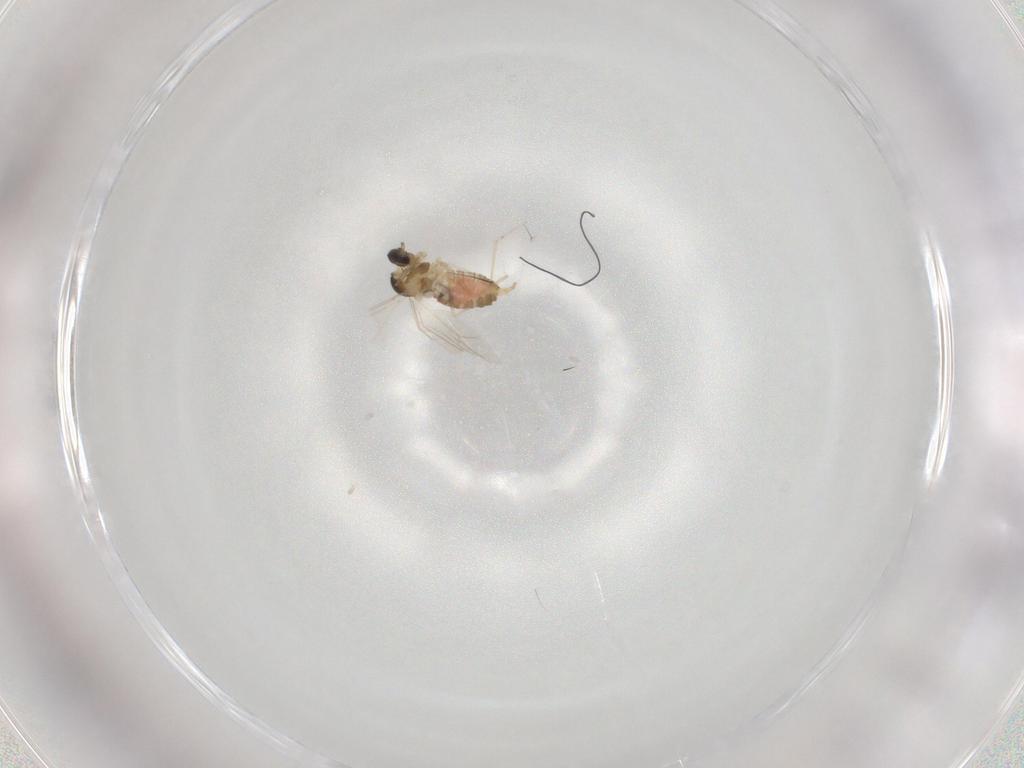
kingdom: Animalia
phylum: Arthropoda
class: Insecta
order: Diptera
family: Cecidomyiidae
